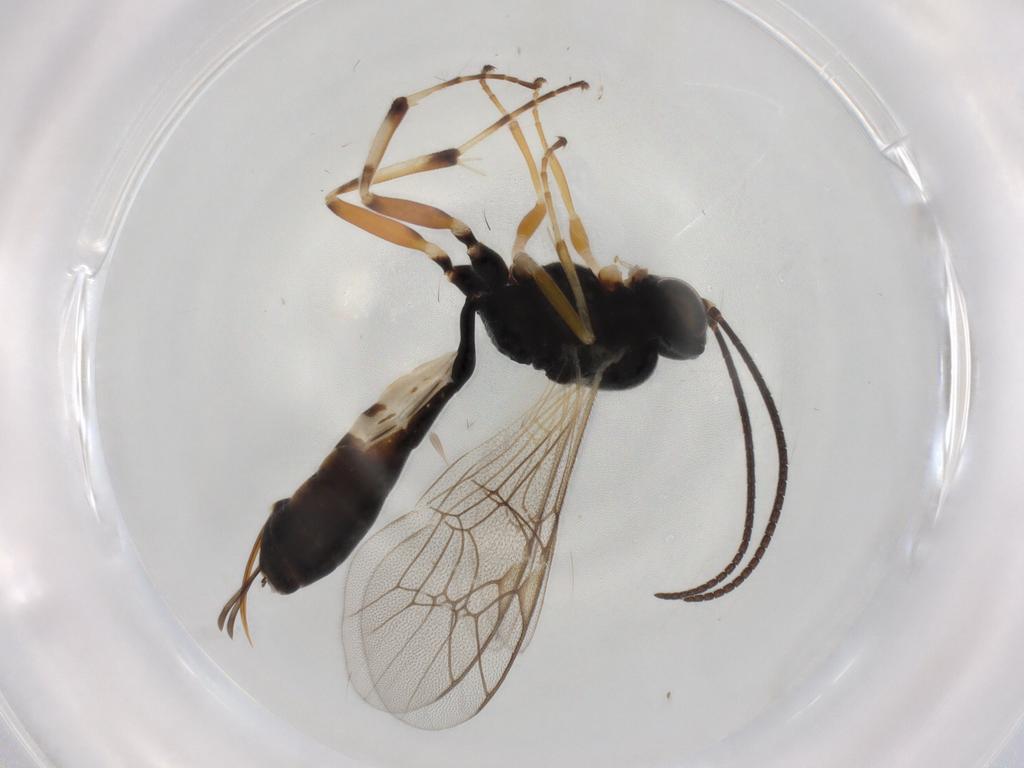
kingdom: Animalia
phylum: Arthropoda
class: Insecta
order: Hymenoptera
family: Ichneumonidae
